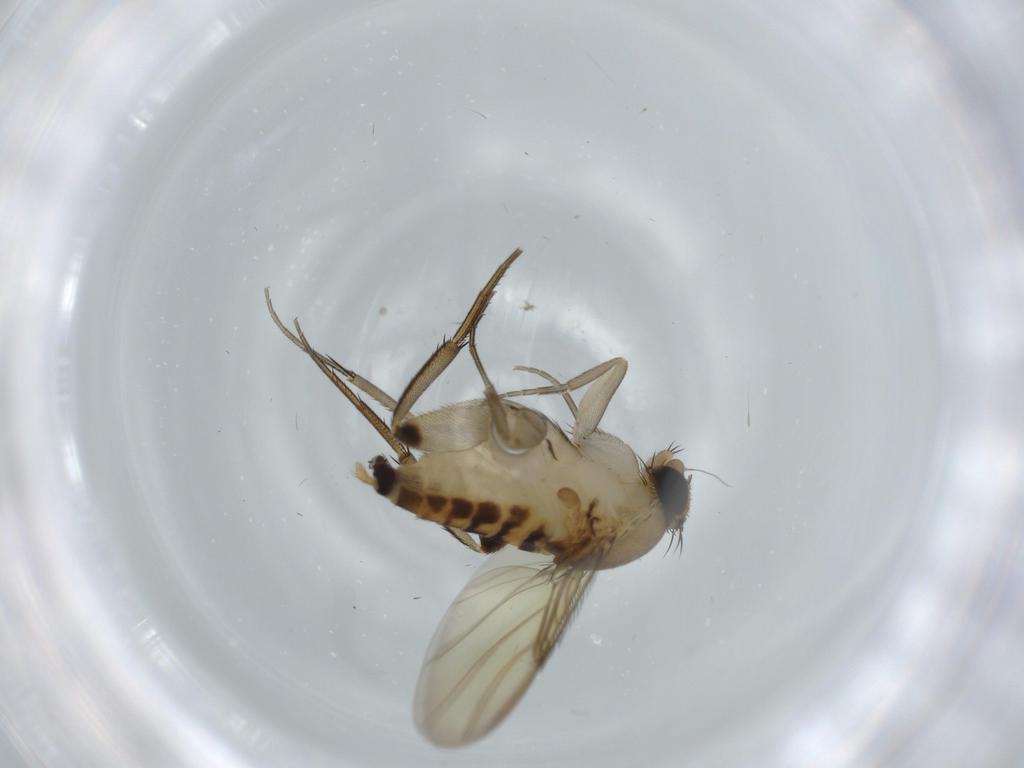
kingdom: Animalia
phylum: Arthropoda
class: Insecta
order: Diptera
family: Phoridae
